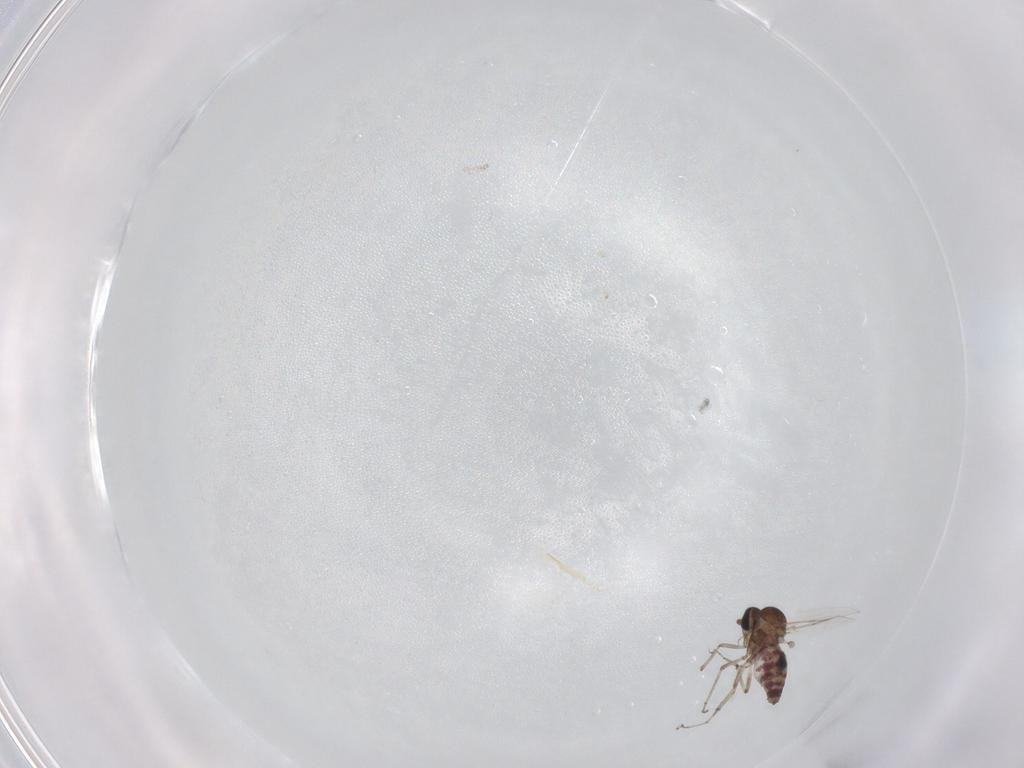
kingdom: Animalia
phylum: Arthropoda
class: Insecta
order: Diptera
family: Ceratopogonidae
